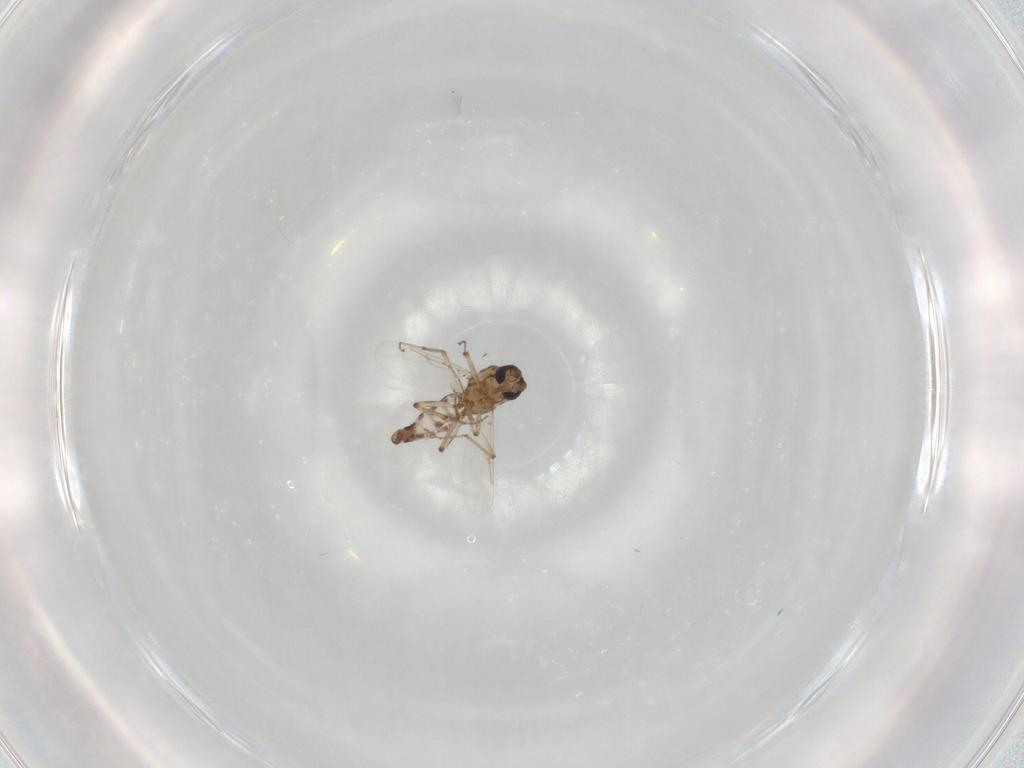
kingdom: Animalia
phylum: Arthropoda
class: Insecta
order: Diptera
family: Ceratopogonidae
